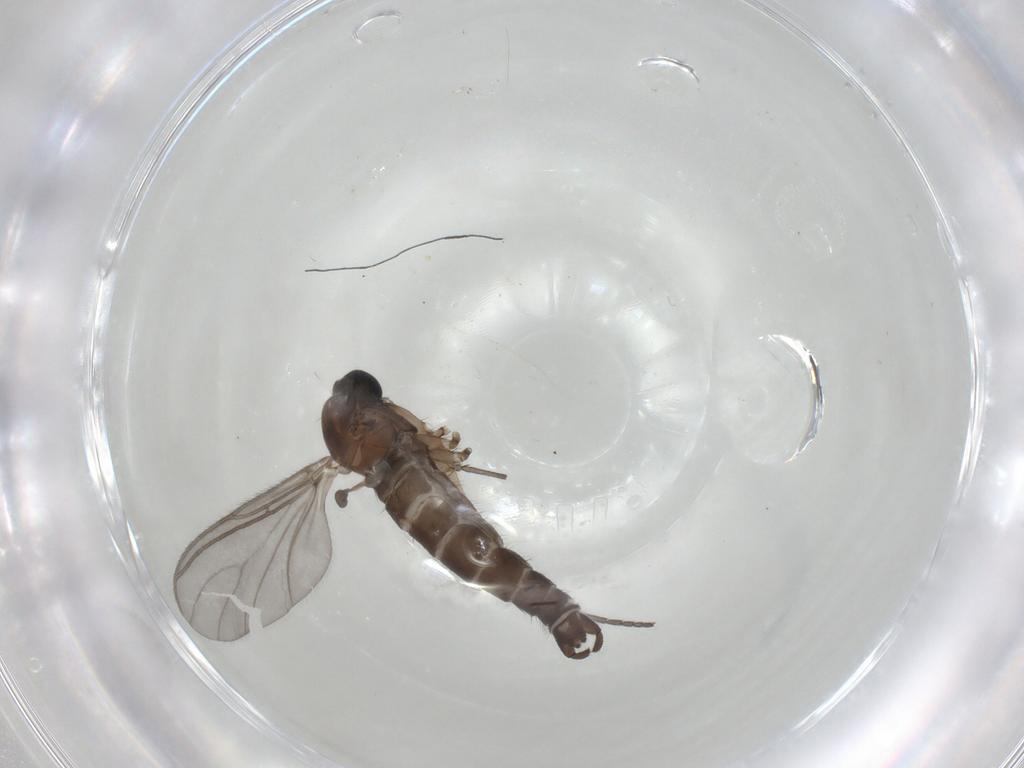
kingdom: Animalia
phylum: Arthropoda
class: Insecta
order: Diptera
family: Sciaridae
